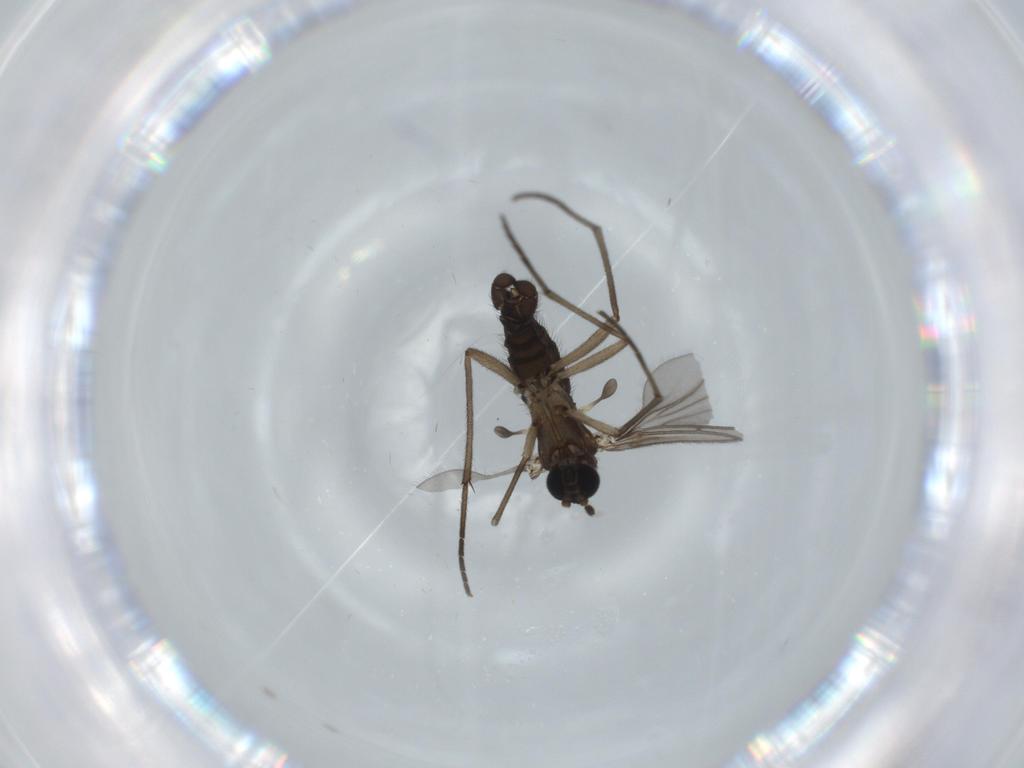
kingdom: Animalia
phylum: Arthropoda
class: Insecta
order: Diptera
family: Sciaridae
